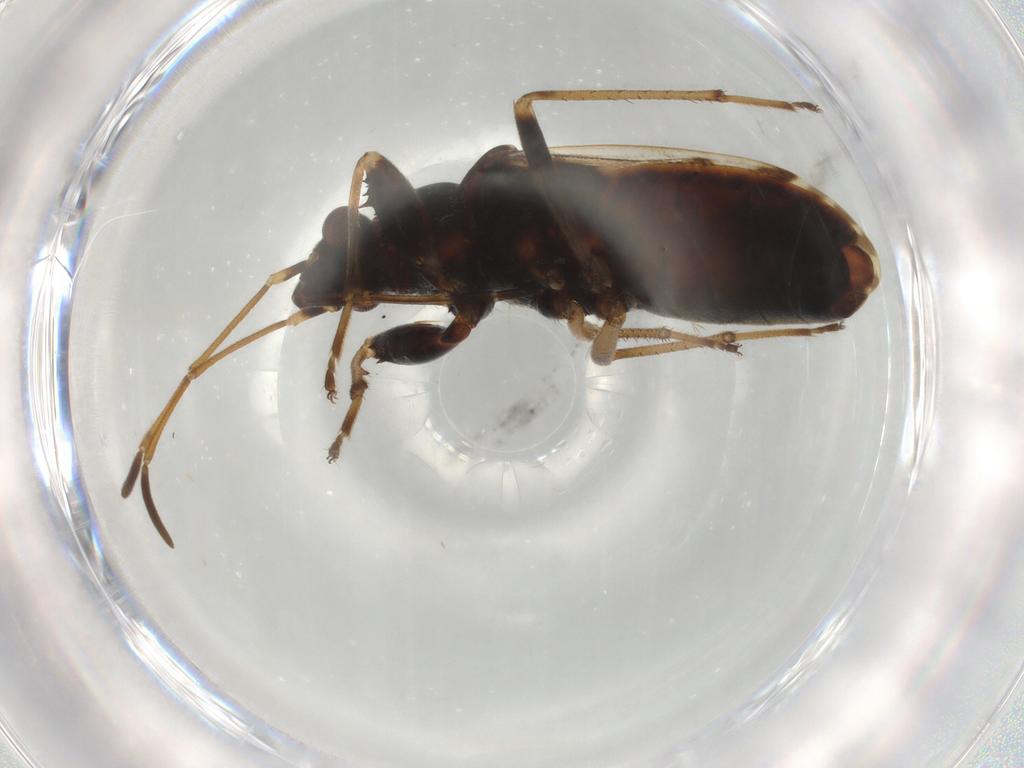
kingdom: Animalia
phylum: Arthropoda
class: Insecta
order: Hemiptera
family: Rhyparochromidae
